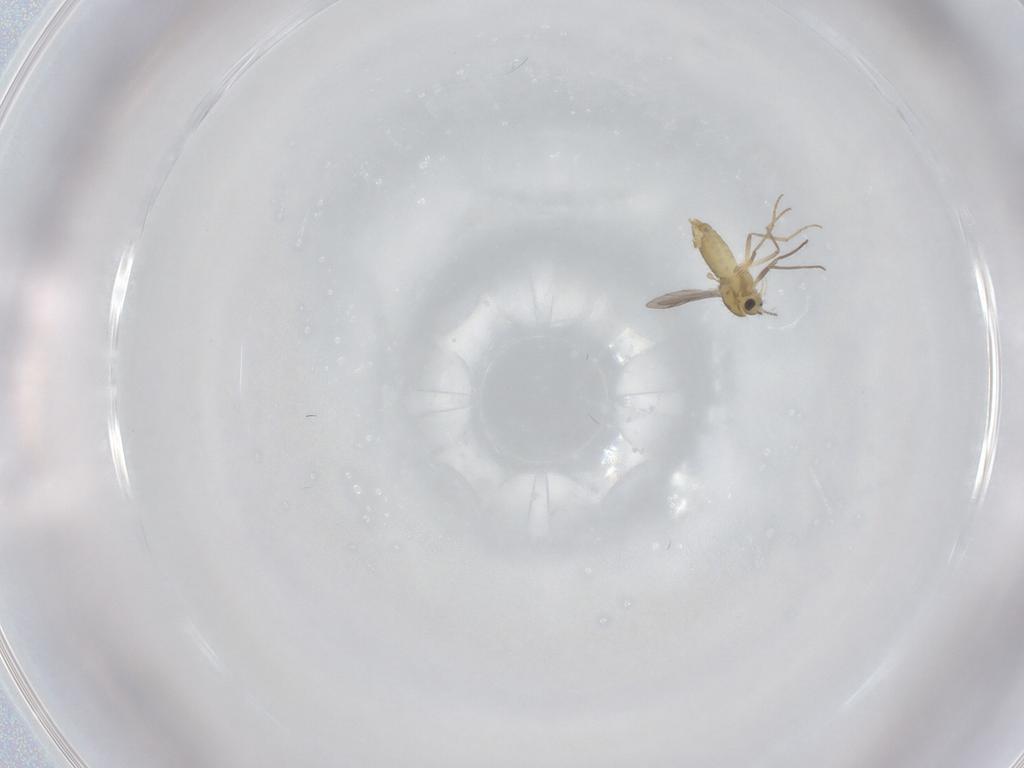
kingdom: Animalia
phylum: Arthropoda
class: Insecta
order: Diptera
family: Chironomidae
